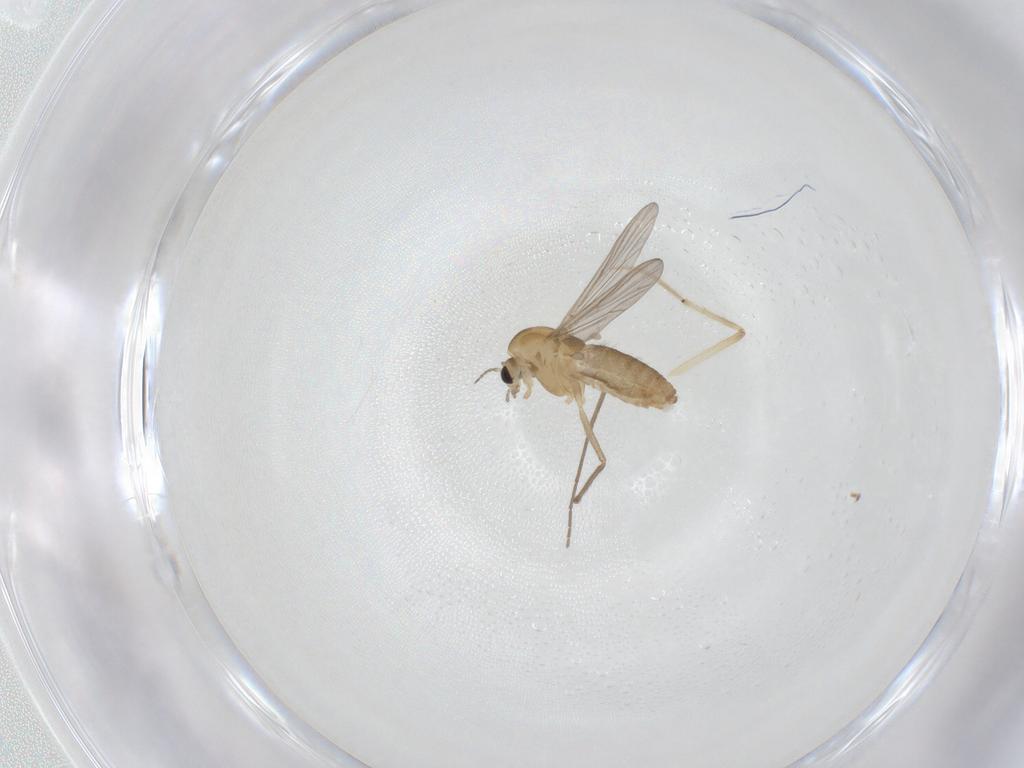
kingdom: Animalia
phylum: Arthropoda
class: Insecta
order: Diptera
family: Chironomidae
